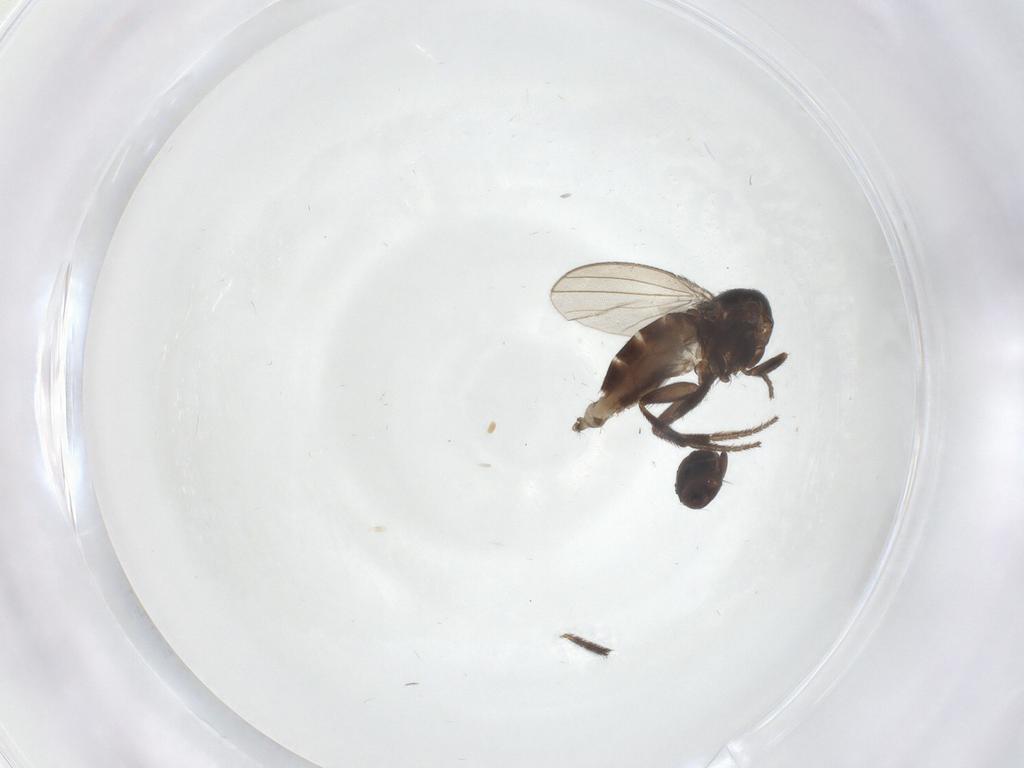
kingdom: Animalia
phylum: Arthropoda
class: Insecta
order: Diptera
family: Chironomidae
